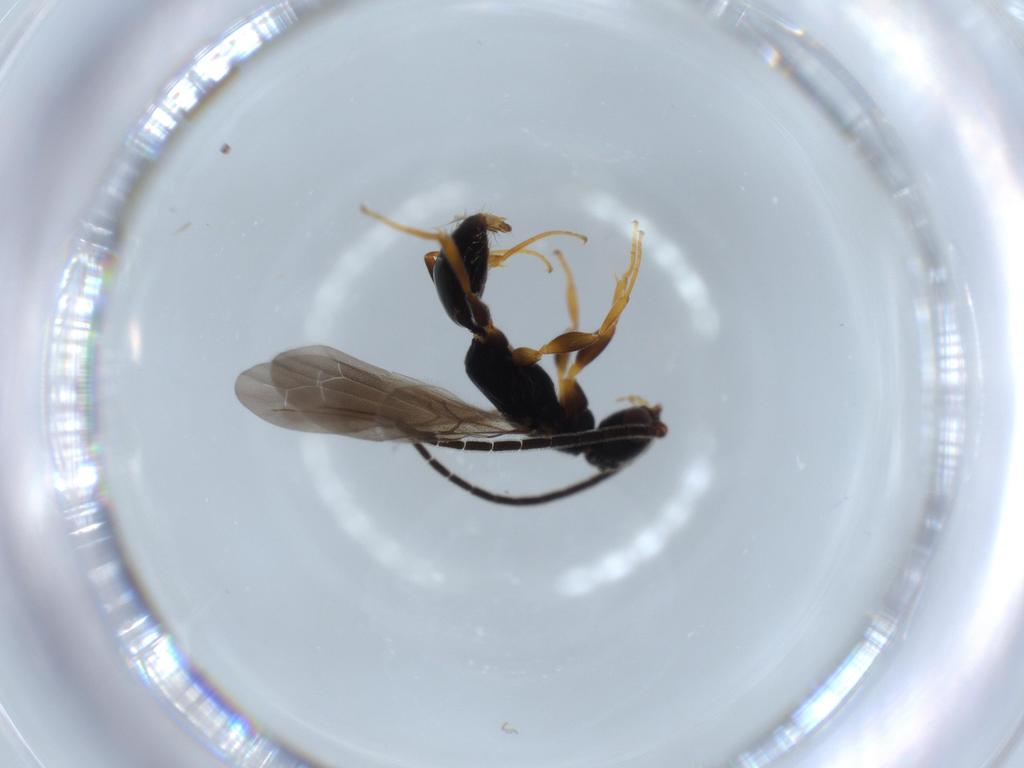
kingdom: Animalia
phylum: Arthropoda
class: Insecta
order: Hymenoptera
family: Bethylidae
